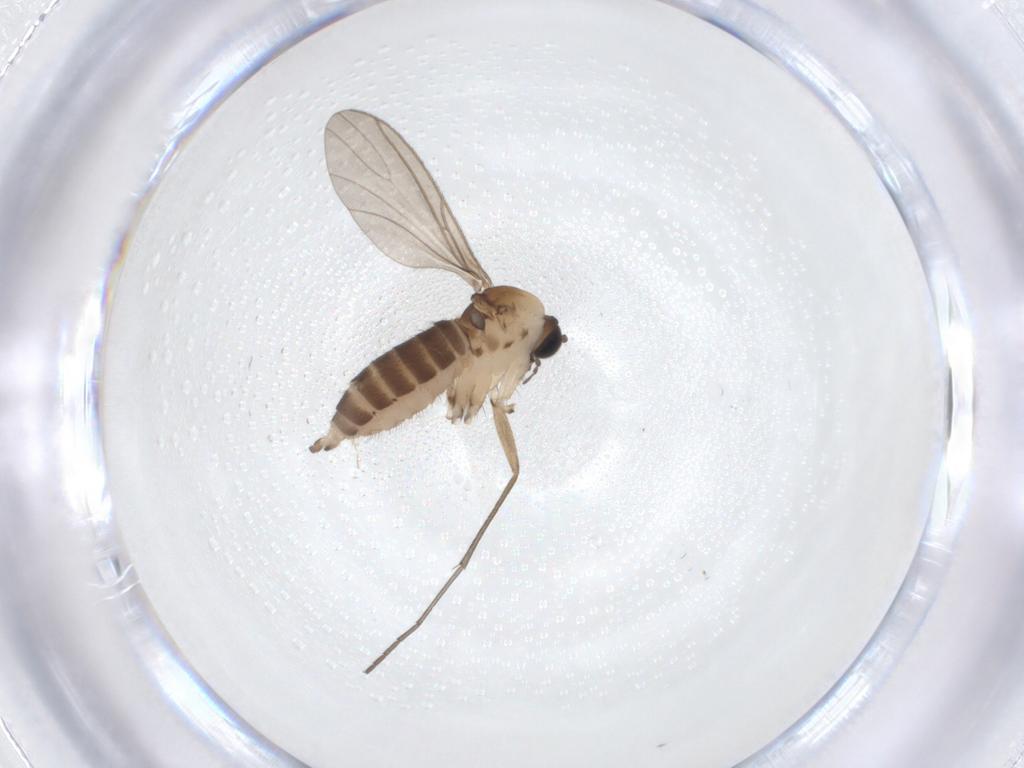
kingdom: Animalia
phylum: Arthropoda
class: Insecta
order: Diptera
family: Sciaridae
